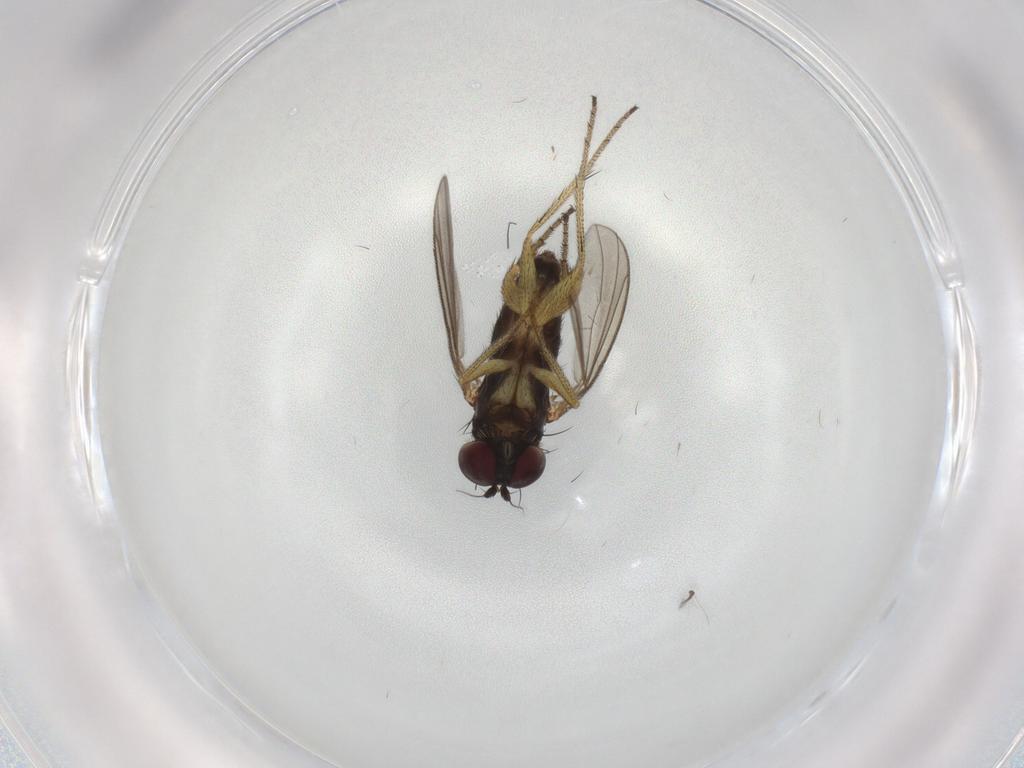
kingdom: Animalia
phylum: Arthropoda
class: Insecta
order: Diptera
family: Dolichopodidae
